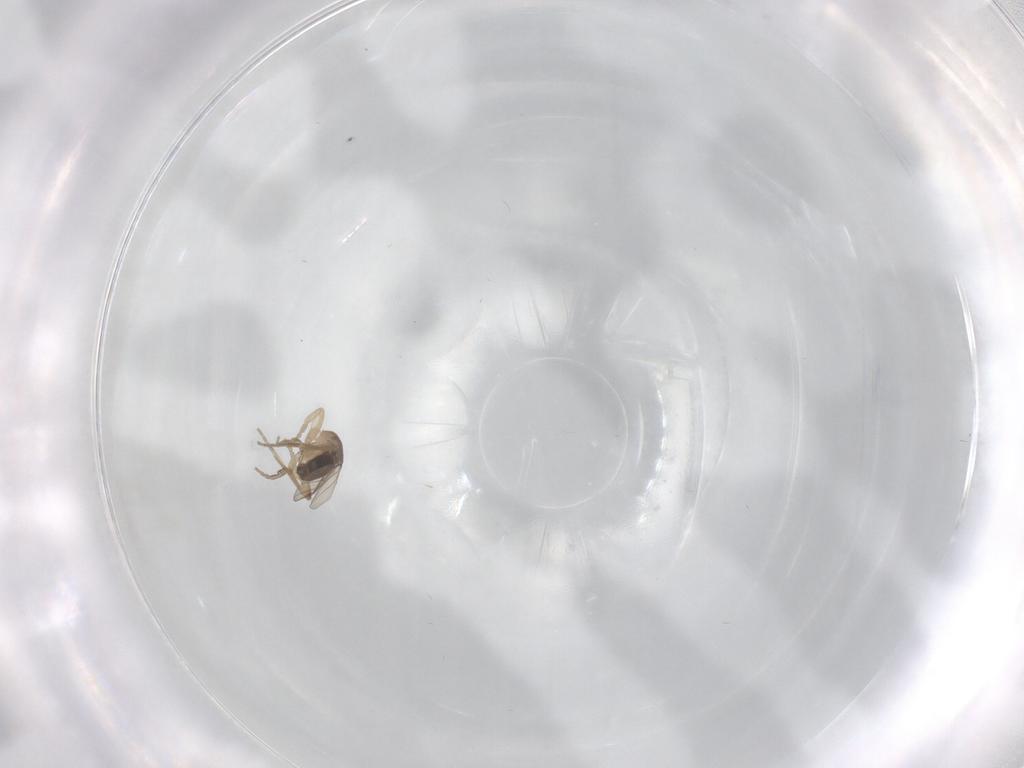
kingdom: Animalia
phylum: Arthropoda
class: Insecta
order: Diptera
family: Phoridae
